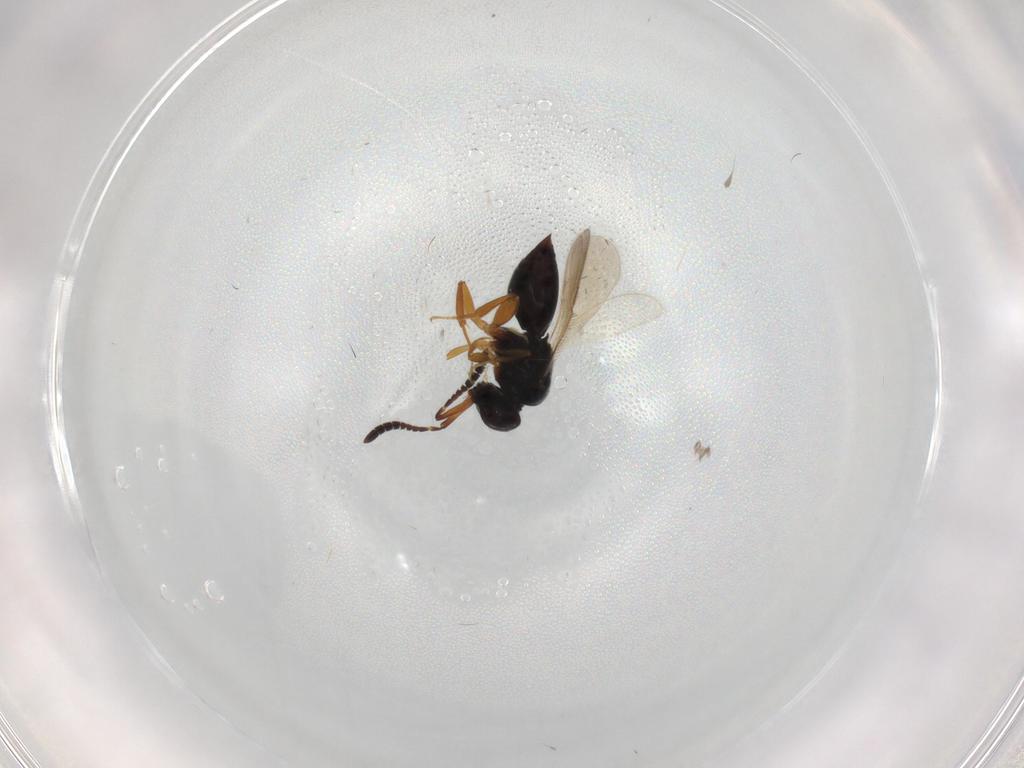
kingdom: Animalia
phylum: Arthropoda
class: Insecta
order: Hymenoptera
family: Ceraphronidae
